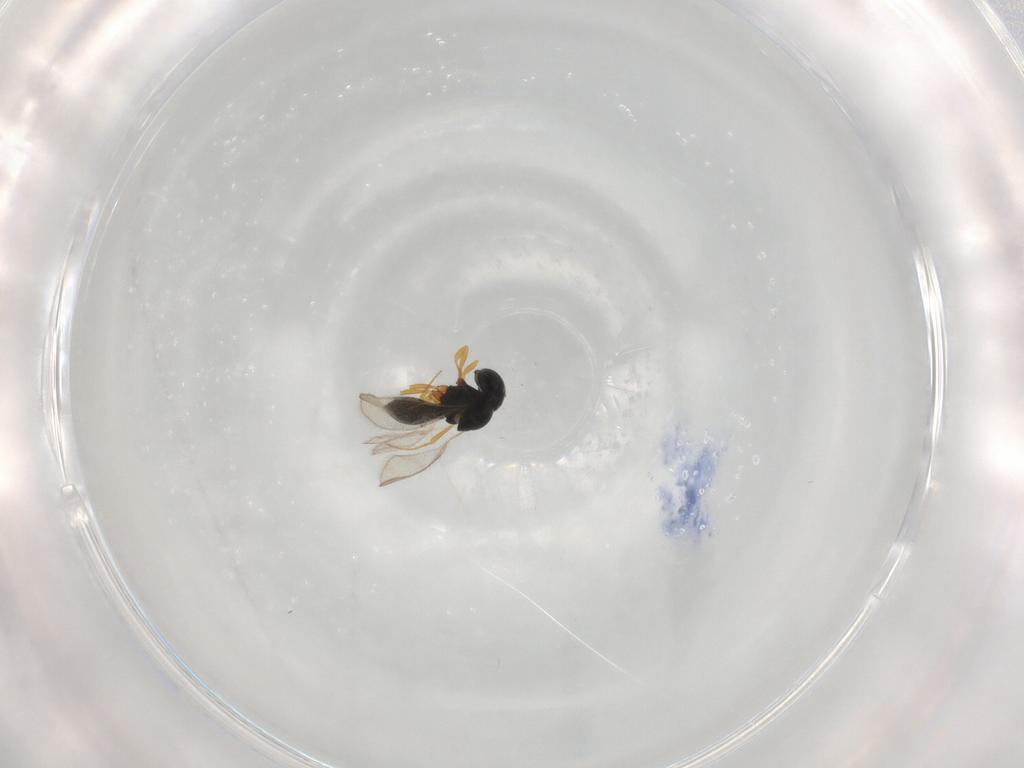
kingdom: Animalia
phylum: Arthropoda
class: Insecta
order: Hymenoptera
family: Scelionidae
